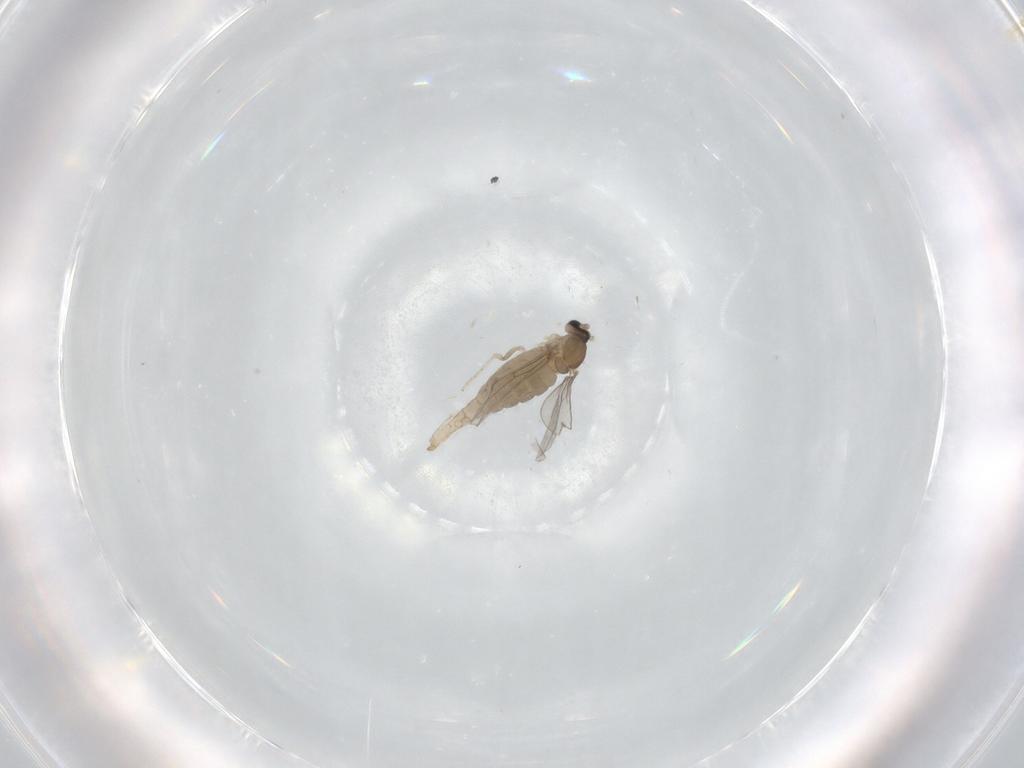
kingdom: Animalia
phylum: Arthropoda
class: Insecta
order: Diptera
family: Cecidomyiidae
